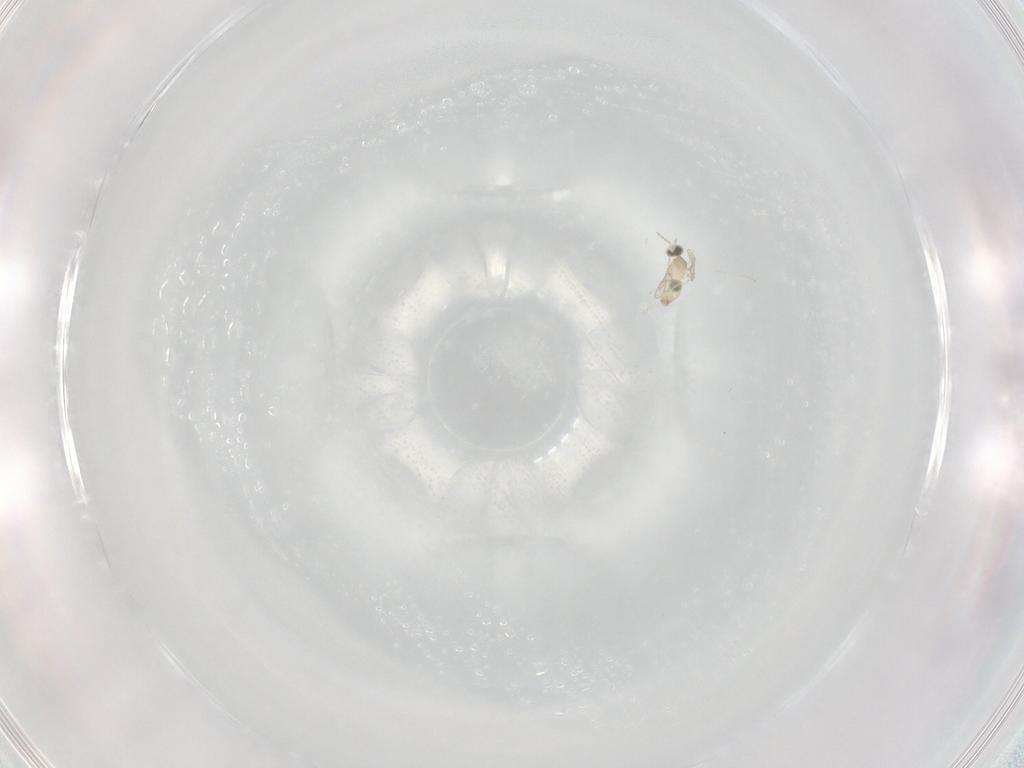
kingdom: Animalia
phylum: Arthropoda
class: Insecta
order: Diptera
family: Cecidomyiidae
